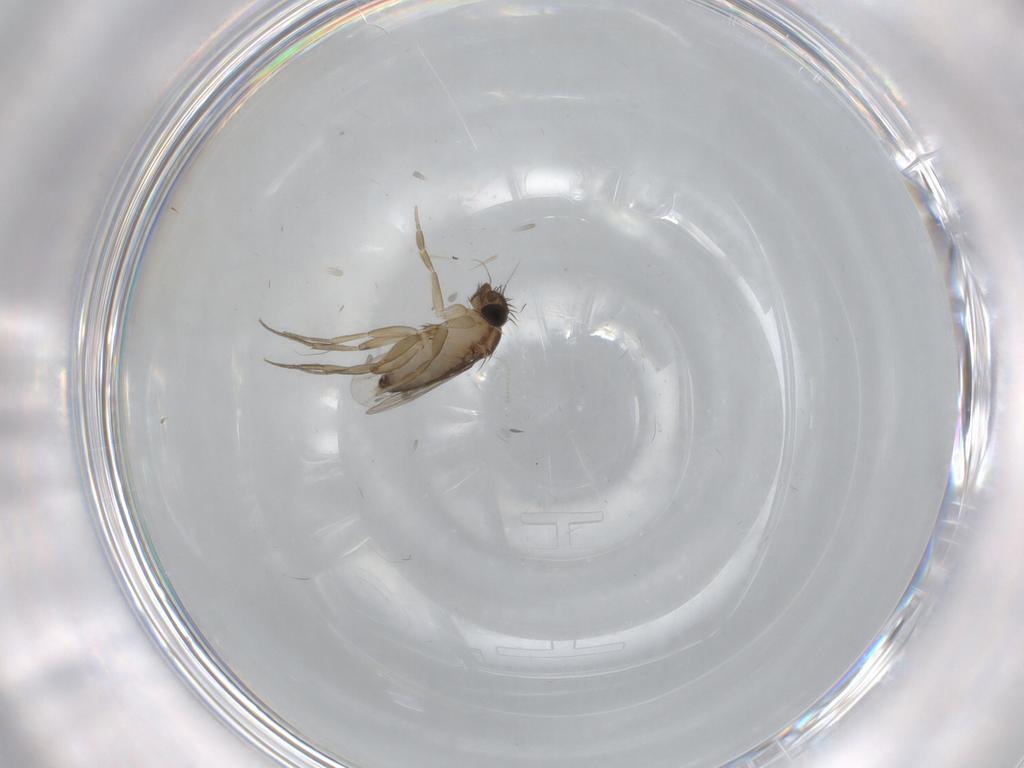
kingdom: Animalia
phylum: Arthropoda
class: Insecta
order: Diptera
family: Phoridae
